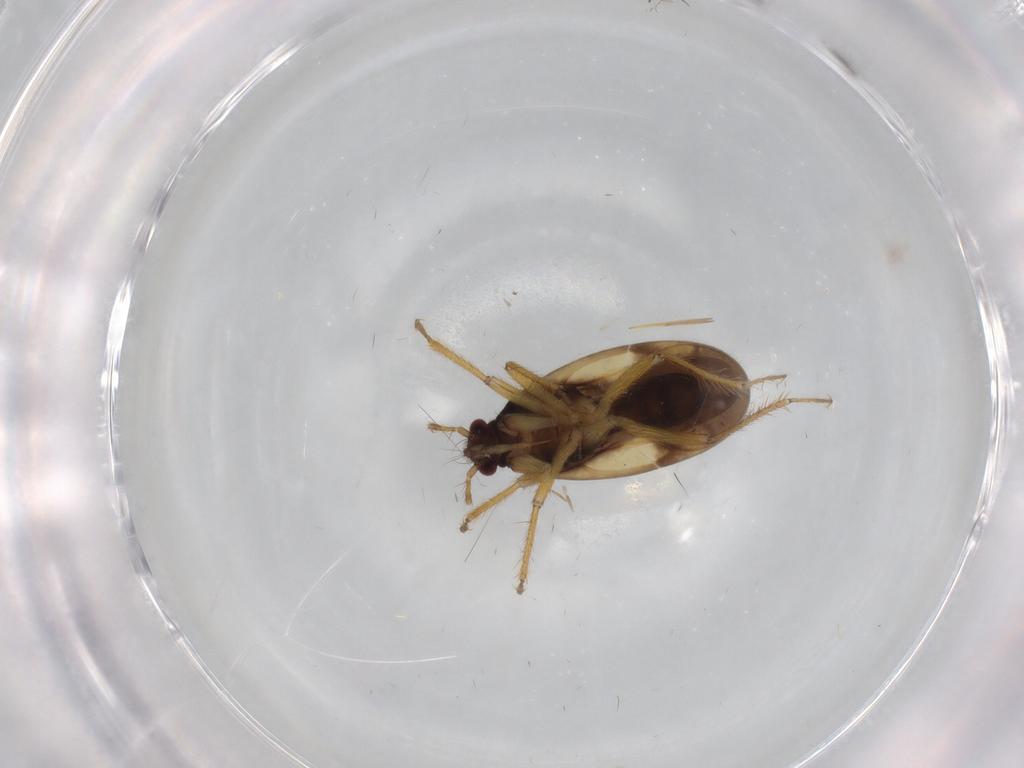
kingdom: Animalia
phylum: Arthropoda
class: Insecta
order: Hemiptera
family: Ceratocombidae
